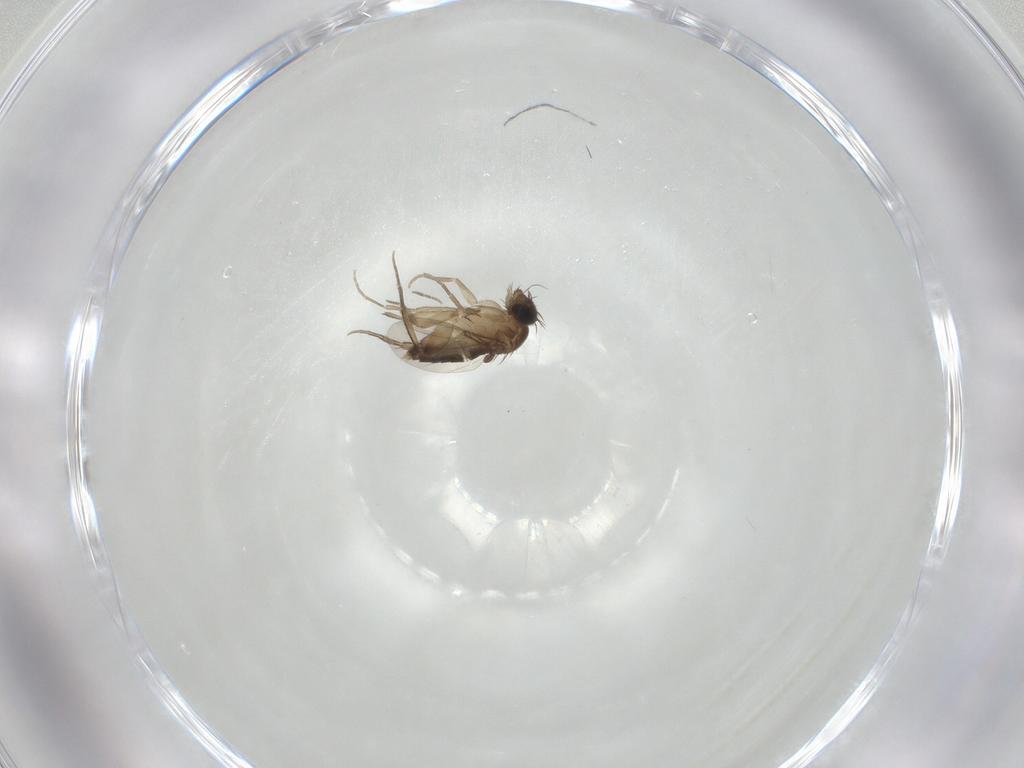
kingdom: Animalia
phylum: Arthropoda
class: Insecta
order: Diptera
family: Phoridae
